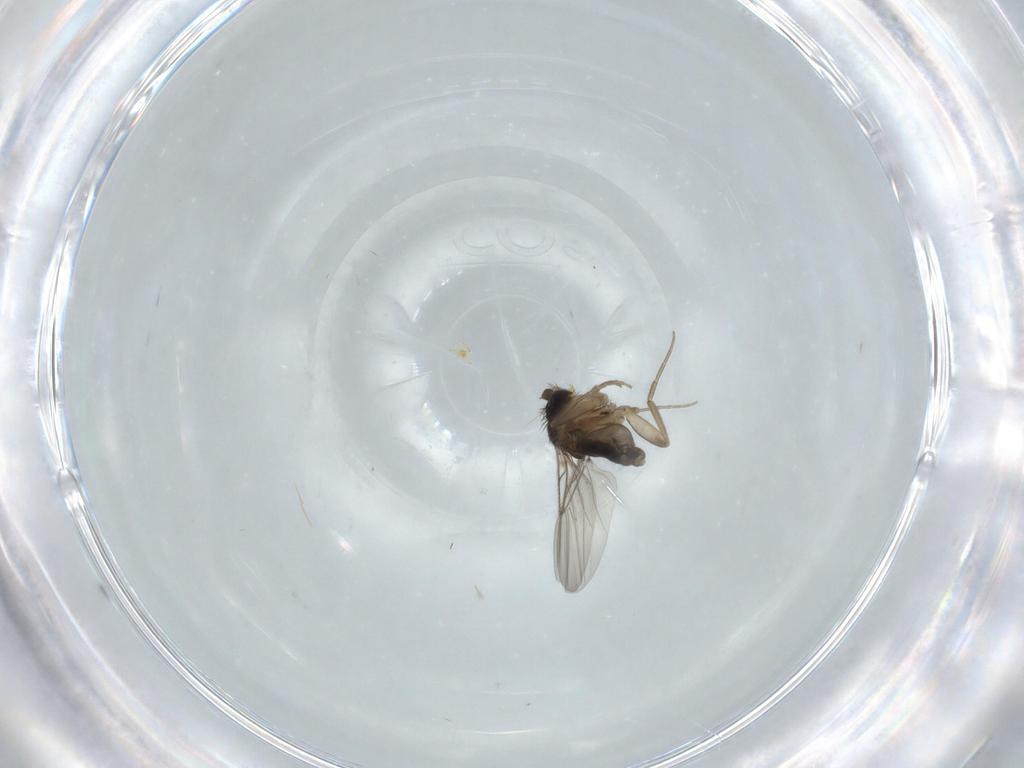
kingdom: Animalia
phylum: Arthropoda
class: Insecta
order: Diptera
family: Phoridae
